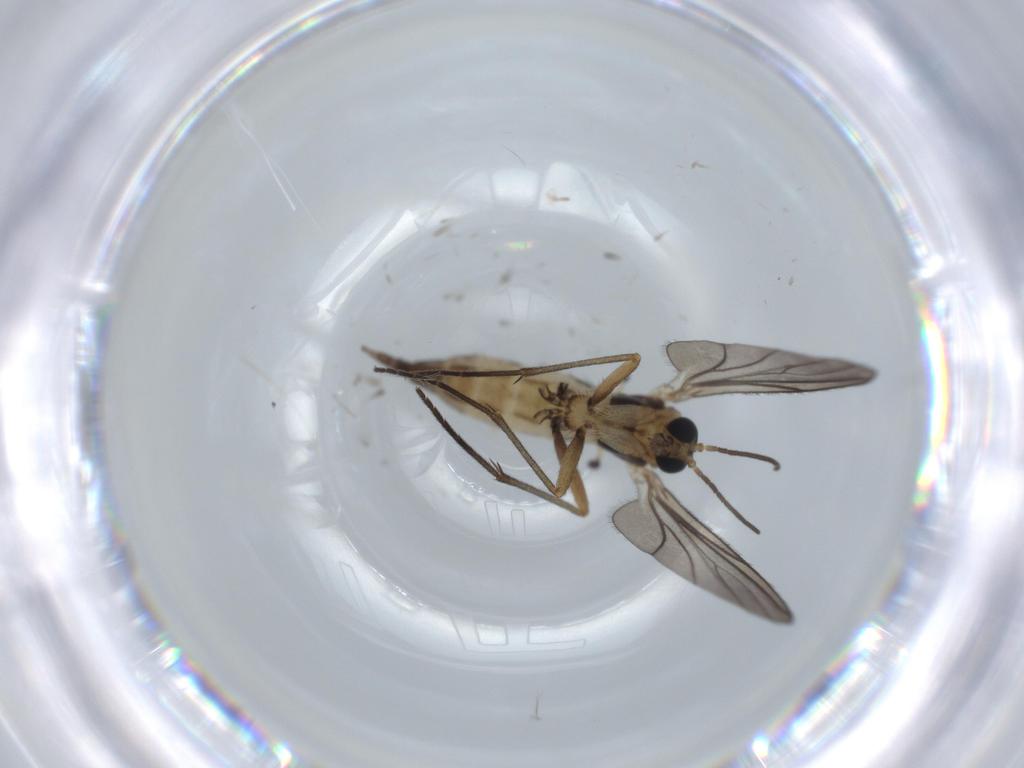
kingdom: Animalia
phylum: Arthropoda
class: Insecta
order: Diptera
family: Sciaridae
